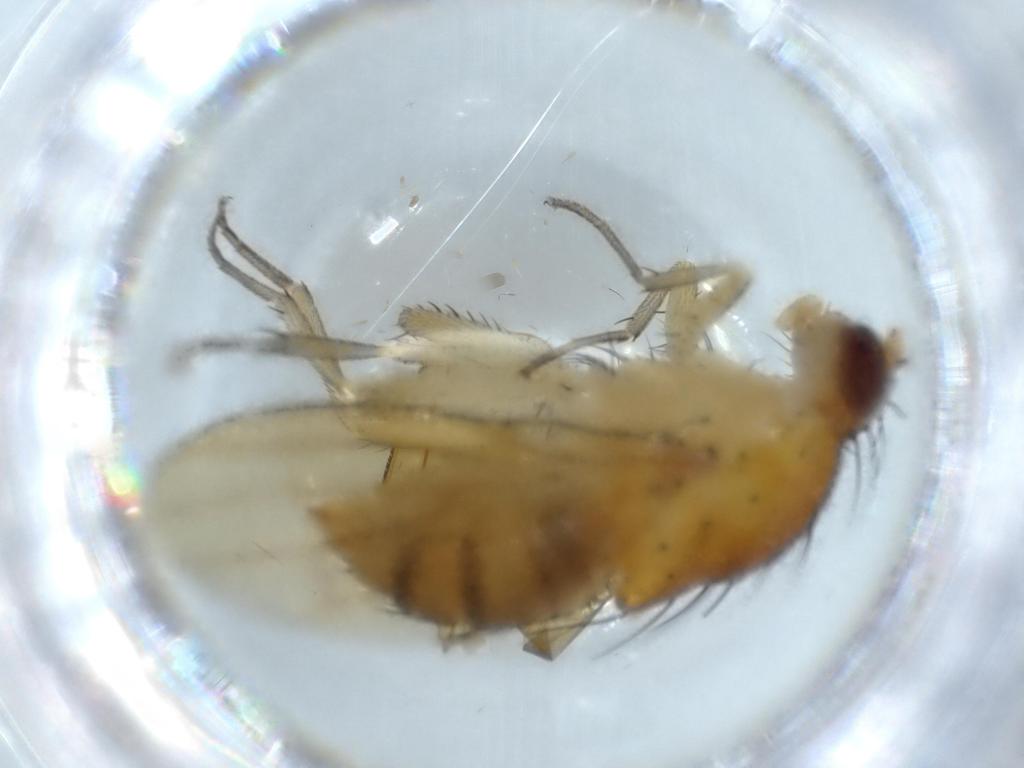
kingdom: Animalia
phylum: Arthropoda
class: Insecta
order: Diptera
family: Cecidomyiidae
